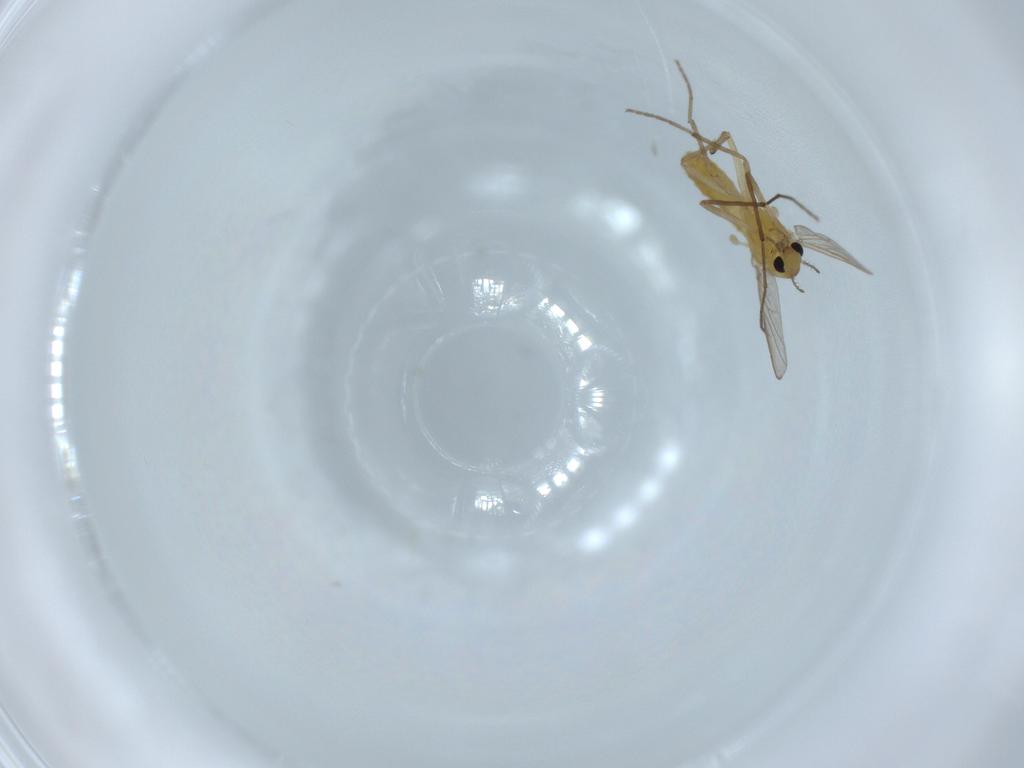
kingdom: Animalia
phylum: Arthropoda
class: Insecta
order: Diptera
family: Chironomidae
